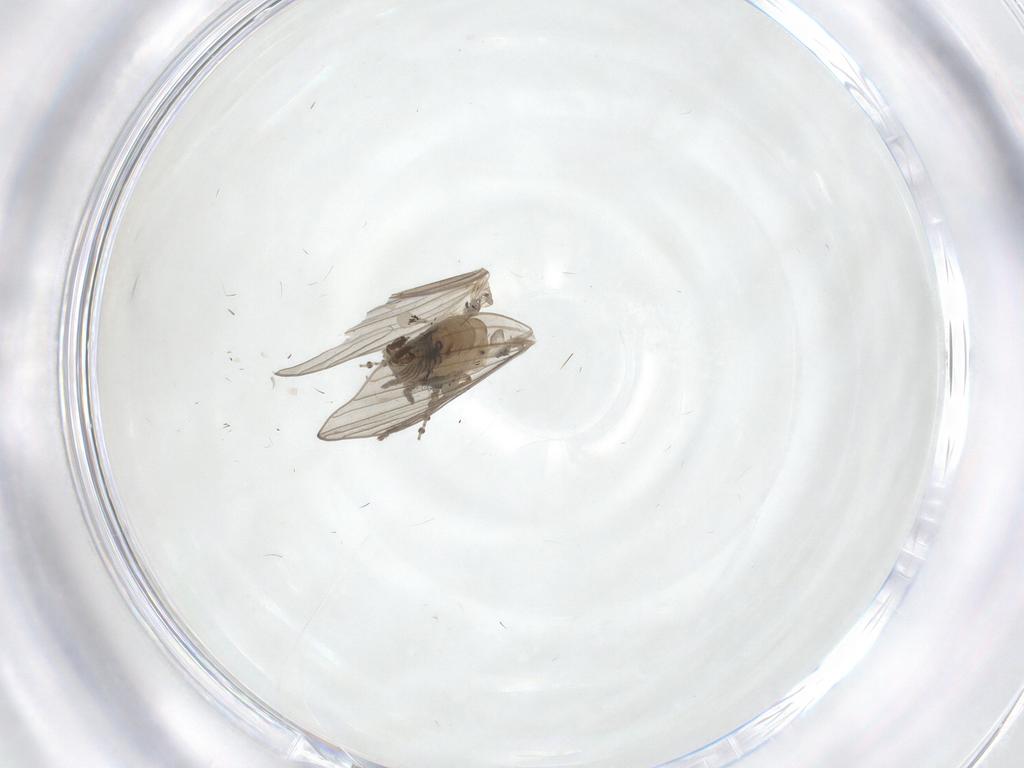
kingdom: Animalia
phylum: Arthropoda
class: Insecta
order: Diptera
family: Psychodidae
